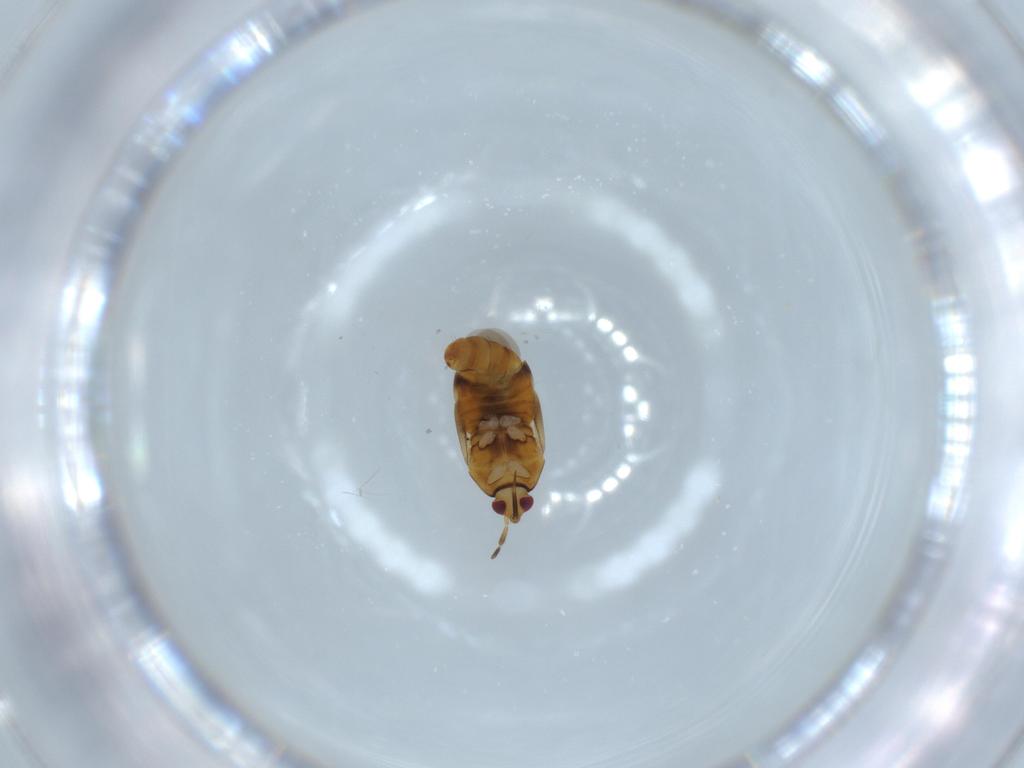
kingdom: Animalia
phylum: Arthropoda
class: Insecta
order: Hemiptera
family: Anthocoridae
